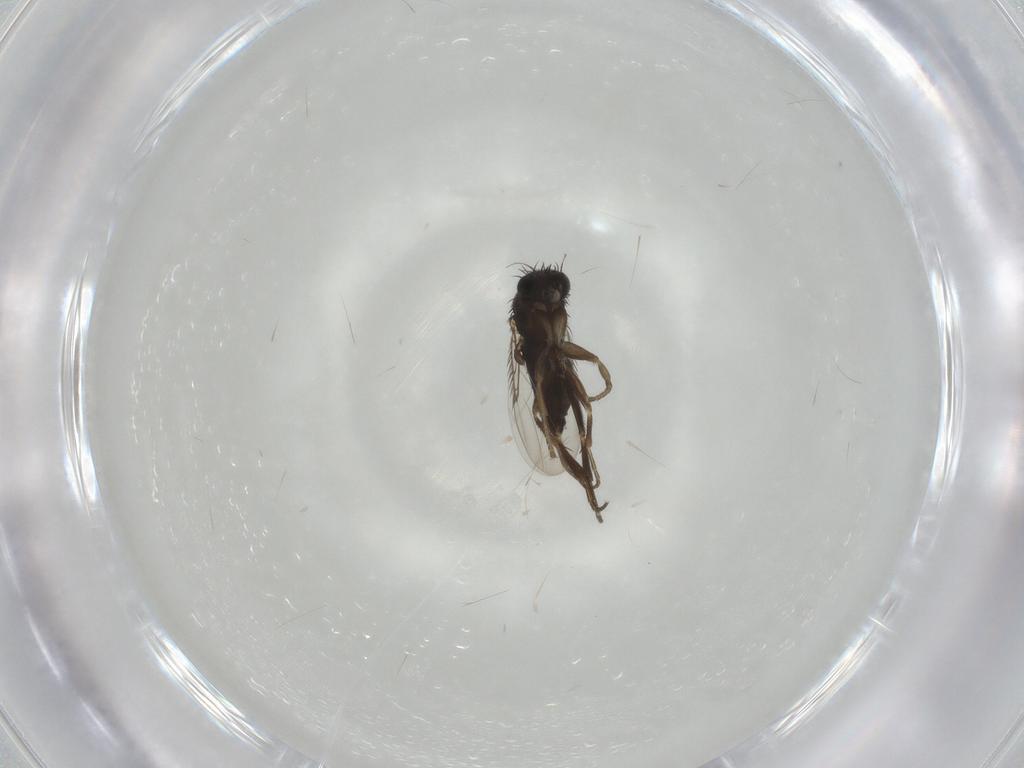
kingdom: Animalia
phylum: Arthropoda
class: Insecta
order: Diptera
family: Phoridae
